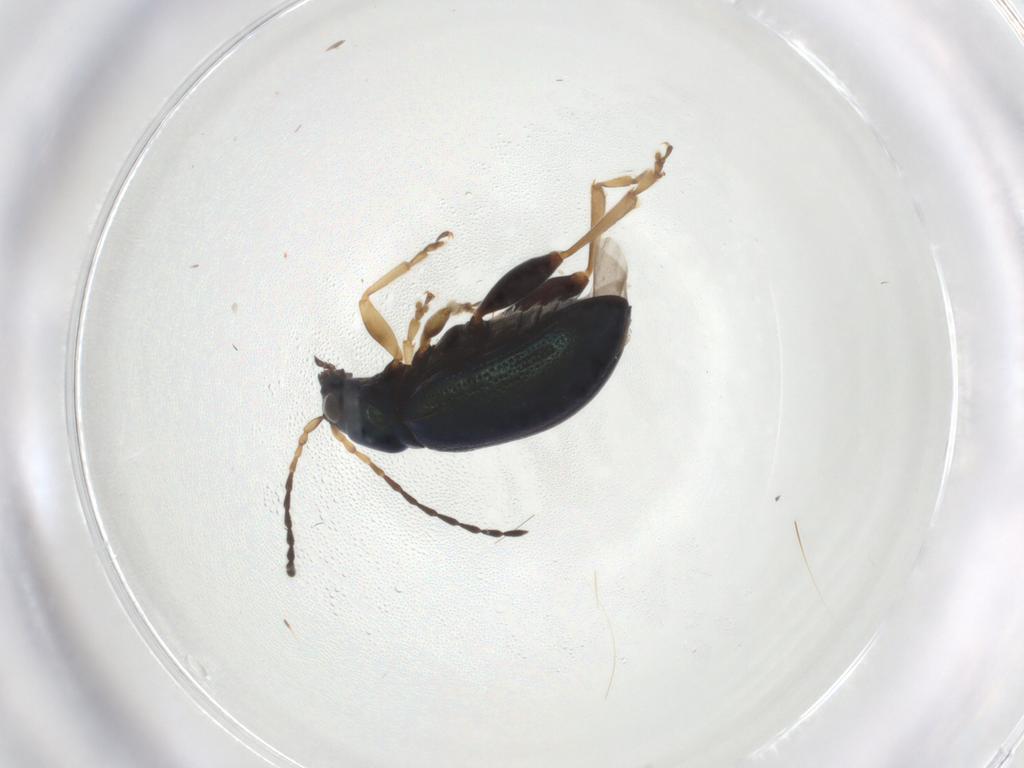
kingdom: Animalia
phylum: Arthropoda
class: Insecta
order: Coleoptera
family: Chrysomelidae
